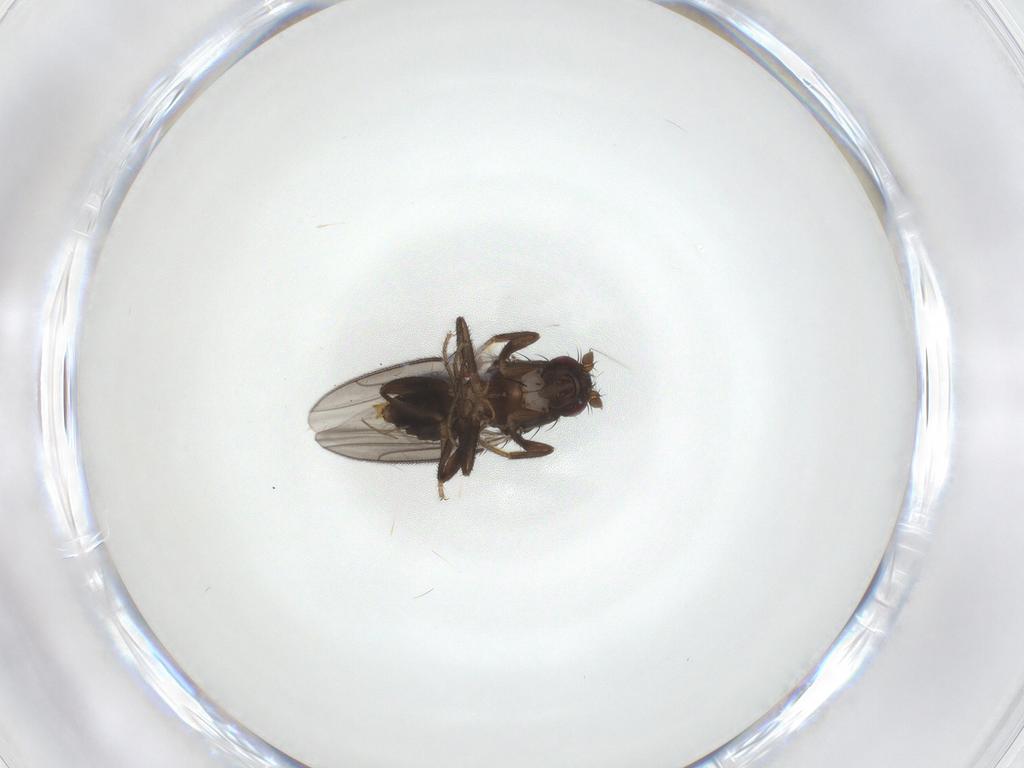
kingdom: Animalia
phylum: Arthropoda
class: Insecta
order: Diptera
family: Sphaeroceridae
